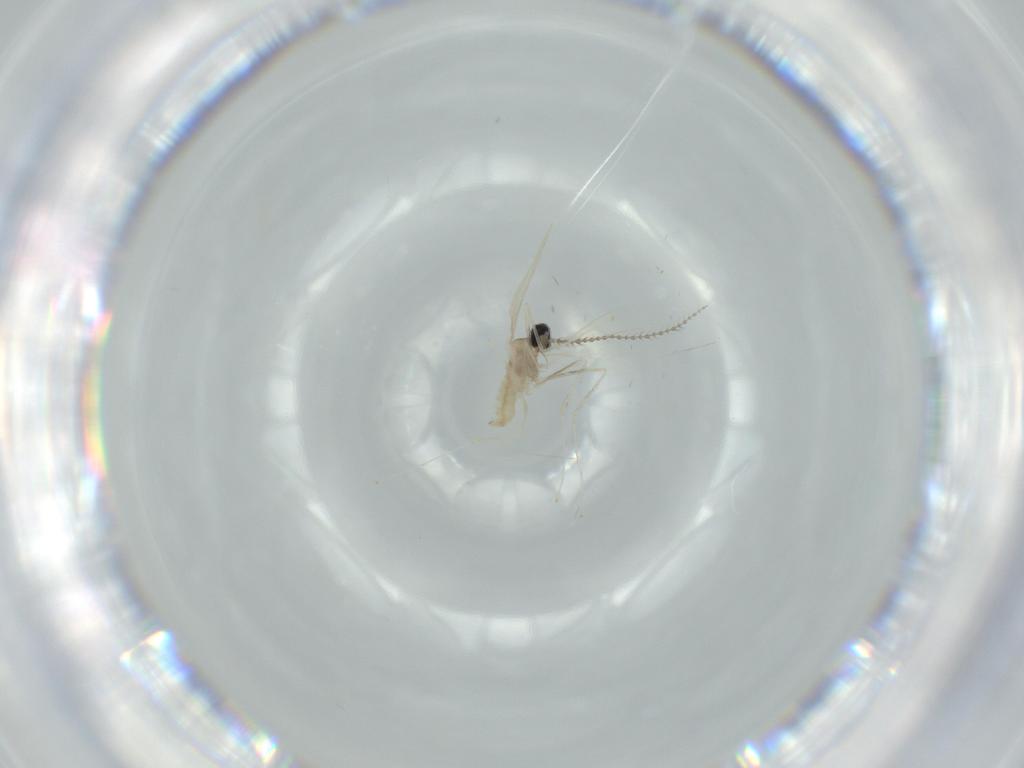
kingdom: Animalia
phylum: Arthropoda
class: Insecta
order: Diptera
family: Cecidomyiidae
